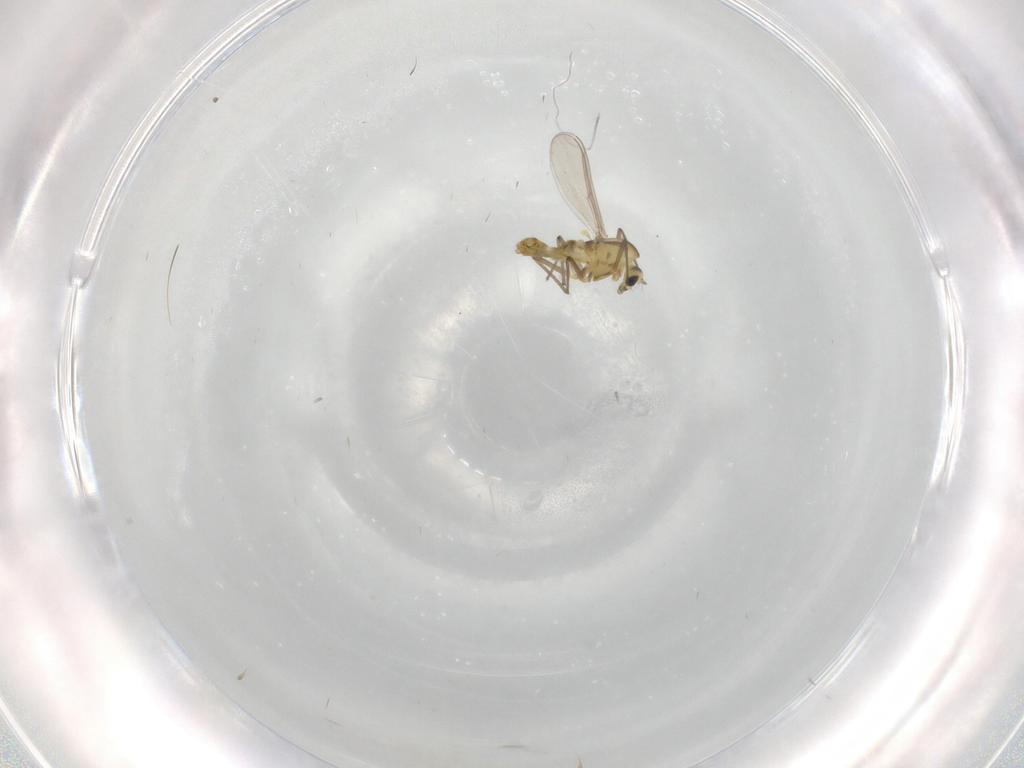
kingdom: Animalia
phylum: Arthropoda
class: Insecta
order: Diptera
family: Chironomidae
